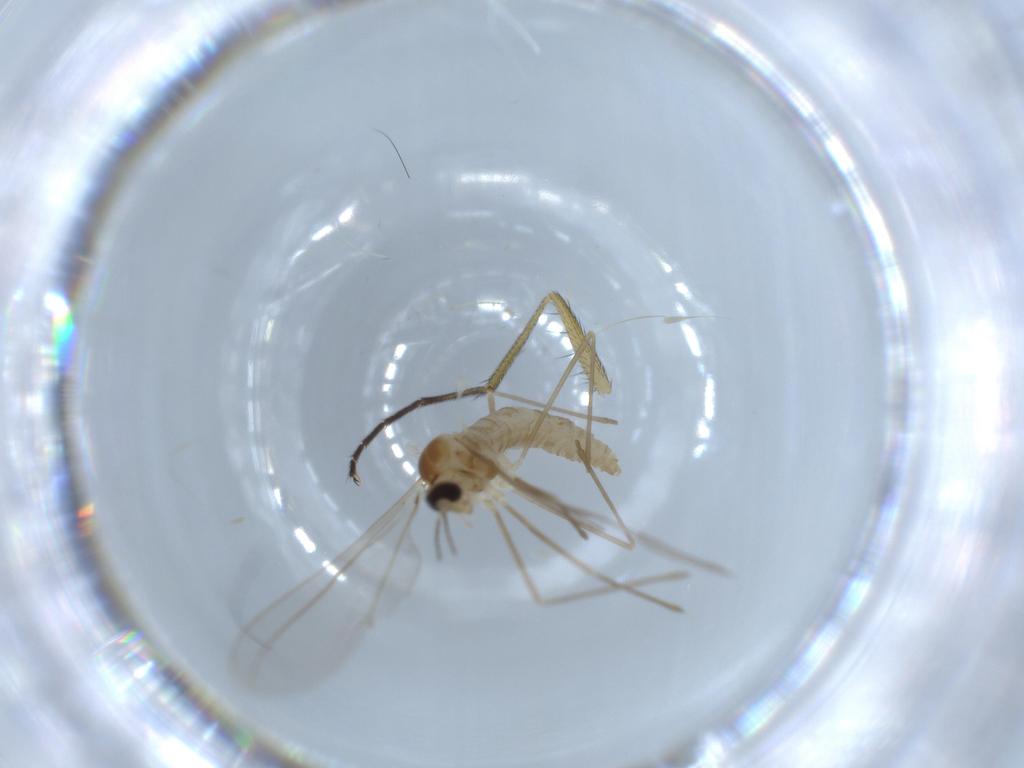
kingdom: Animalia
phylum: Arthropoda
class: Insecta
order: Diptera
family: Cecidomyiidae
